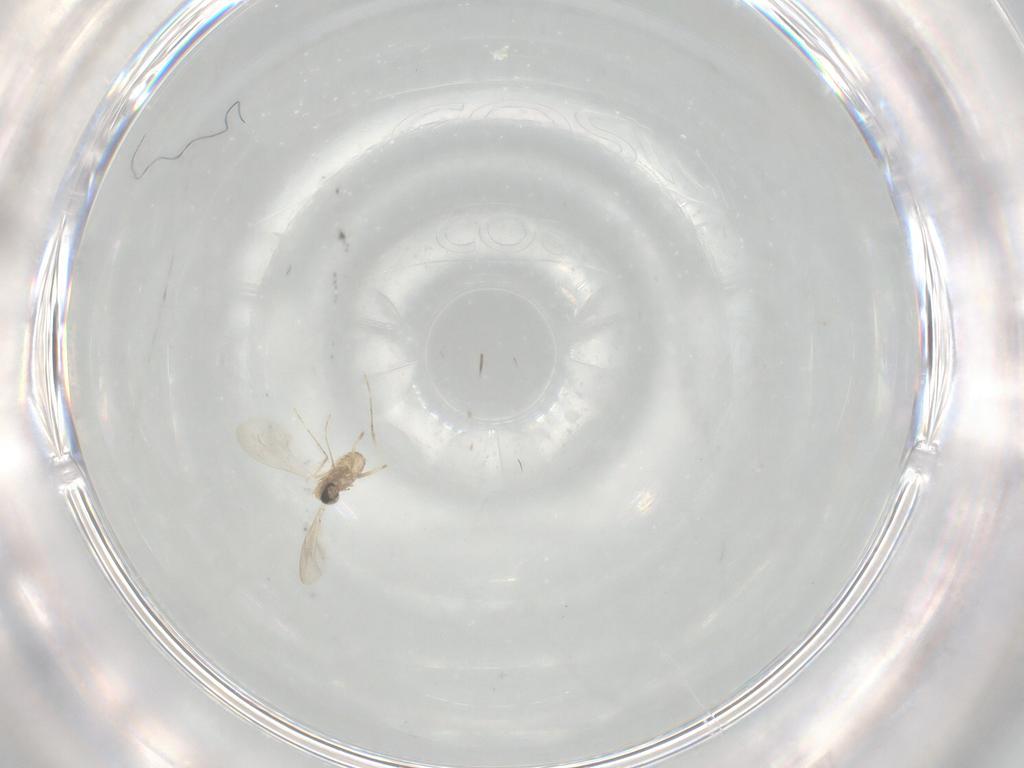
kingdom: Animalia
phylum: Arthropoda
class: Insecta
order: Diptera
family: Cecidomyiidae
